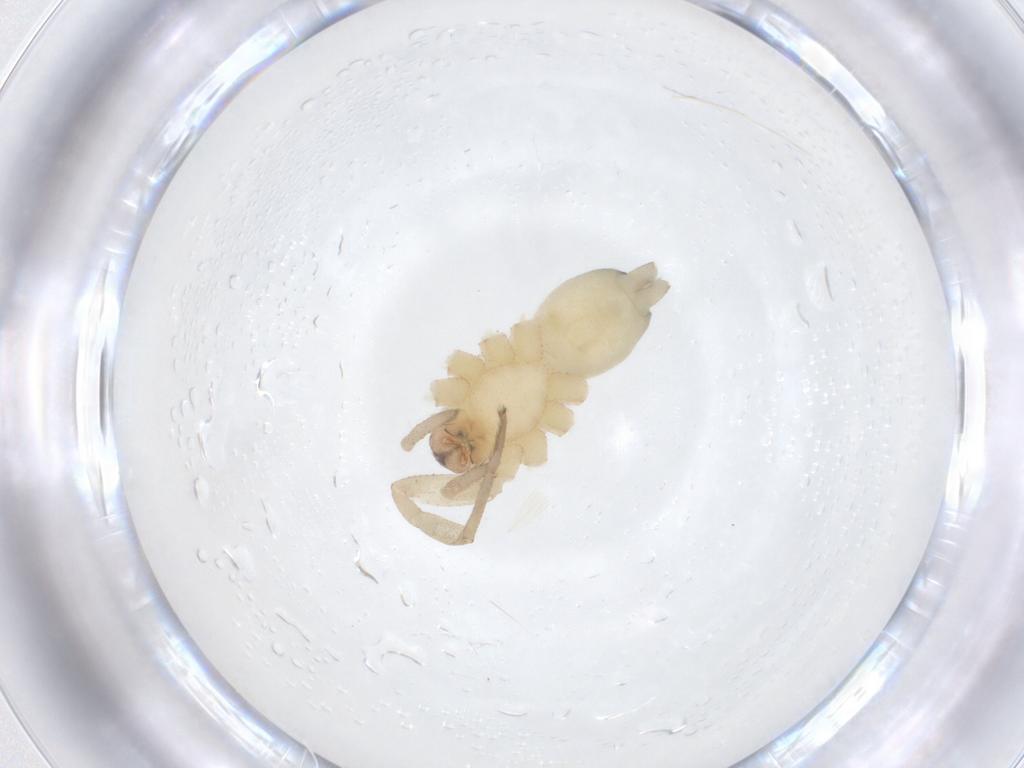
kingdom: Animalia
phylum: Arthropoda
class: Arachnida
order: Araneae
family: Gnaphosidae
